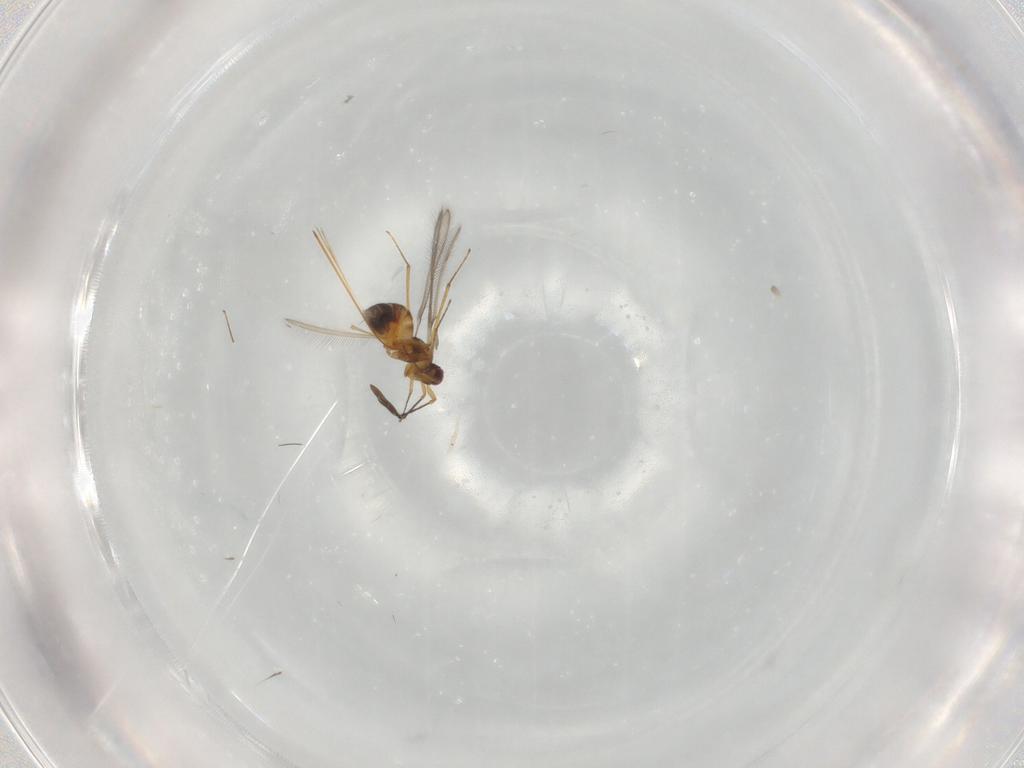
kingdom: Animalia
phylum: Arthropoda
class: Insecta
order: Hymenoptera
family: Mymaridae
